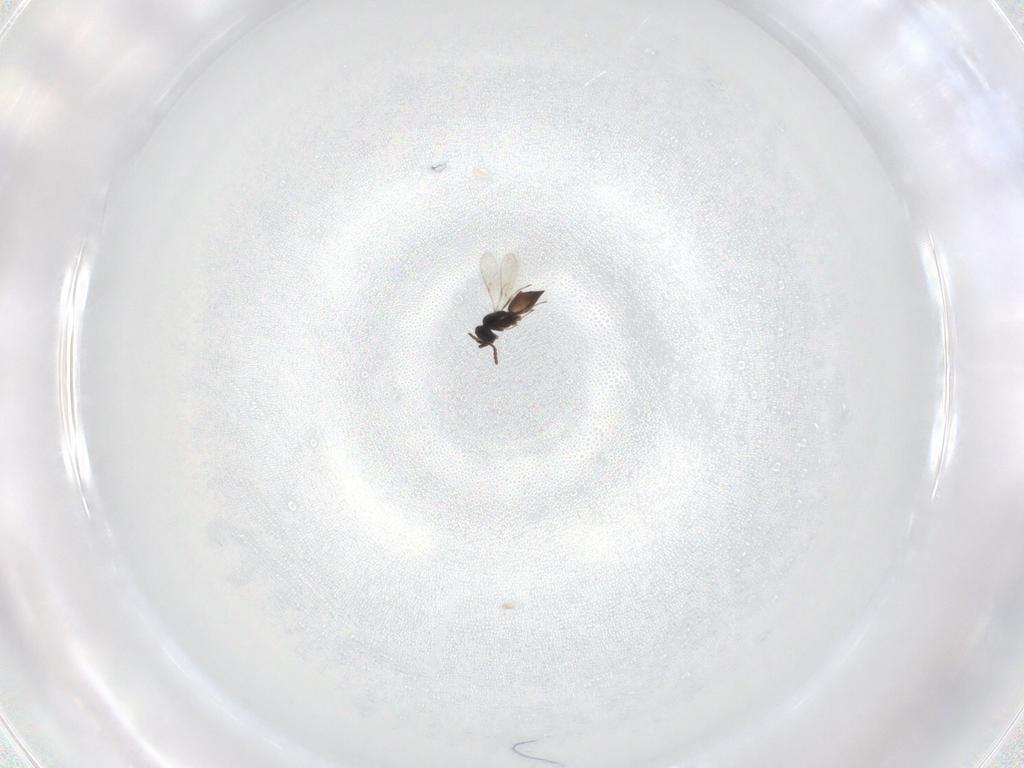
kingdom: Animalia
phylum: Arthropoda
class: Insecta
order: Hymenoptera
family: Scelionidae
